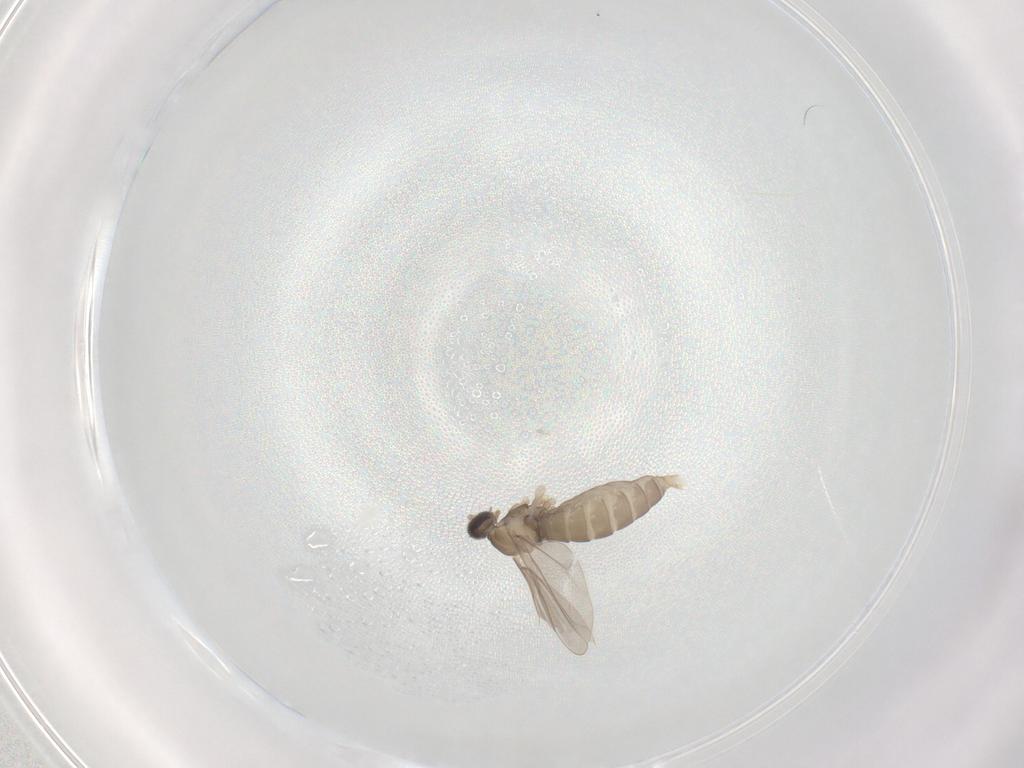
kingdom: Animalia
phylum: Arthropoda
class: Insecta
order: Diptera
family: Cecidomyiidae
